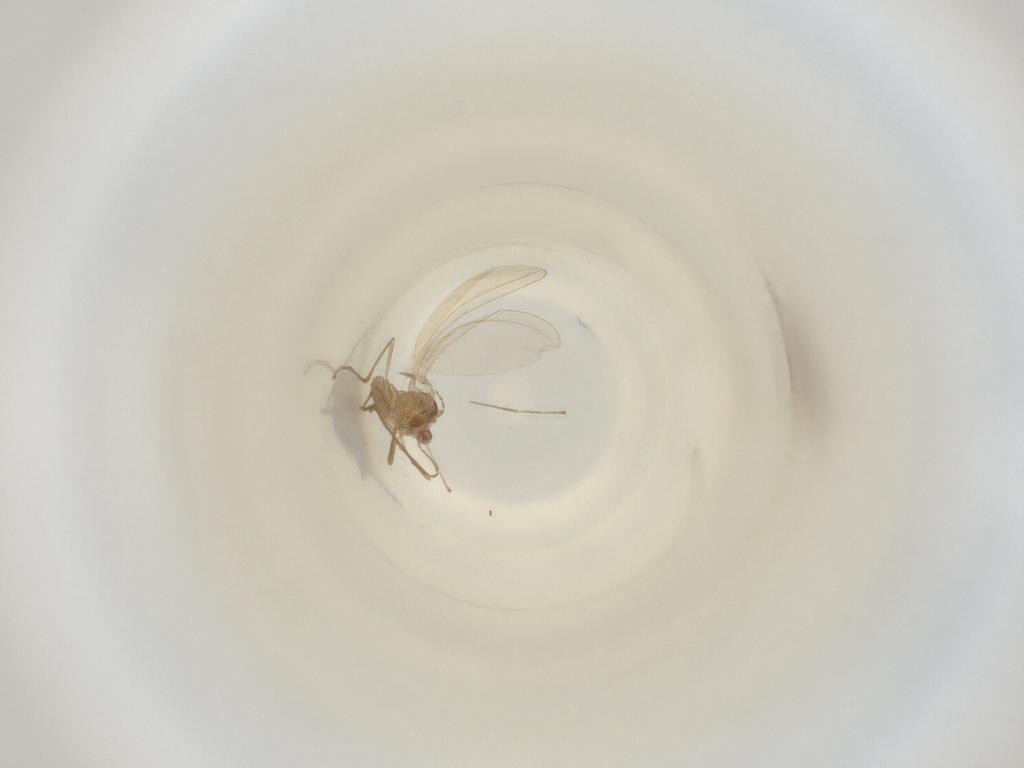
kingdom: Animalia
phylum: Arthropoda
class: Insecta
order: Diptera
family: Cecidomyiidae
